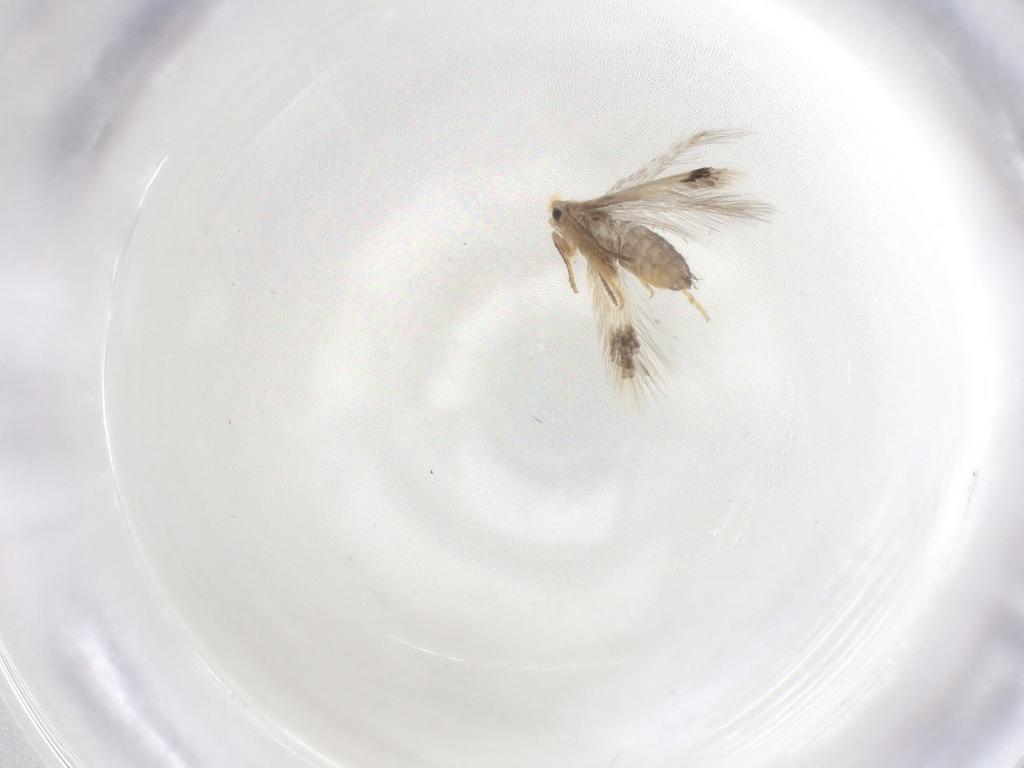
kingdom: Animalia
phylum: Arthropoda
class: Insecta
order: Lepidoptera
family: Nepticulidae
